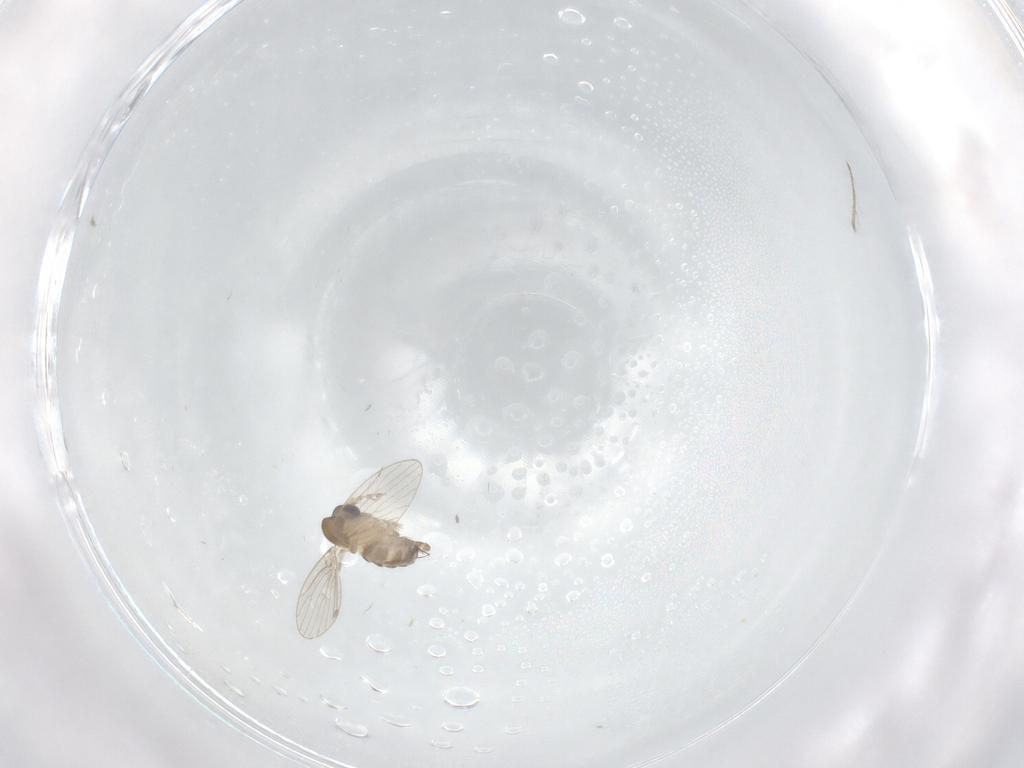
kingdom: Animalia
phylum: Arthropoda
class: Insecta
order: Diptera
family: Psychodidae
